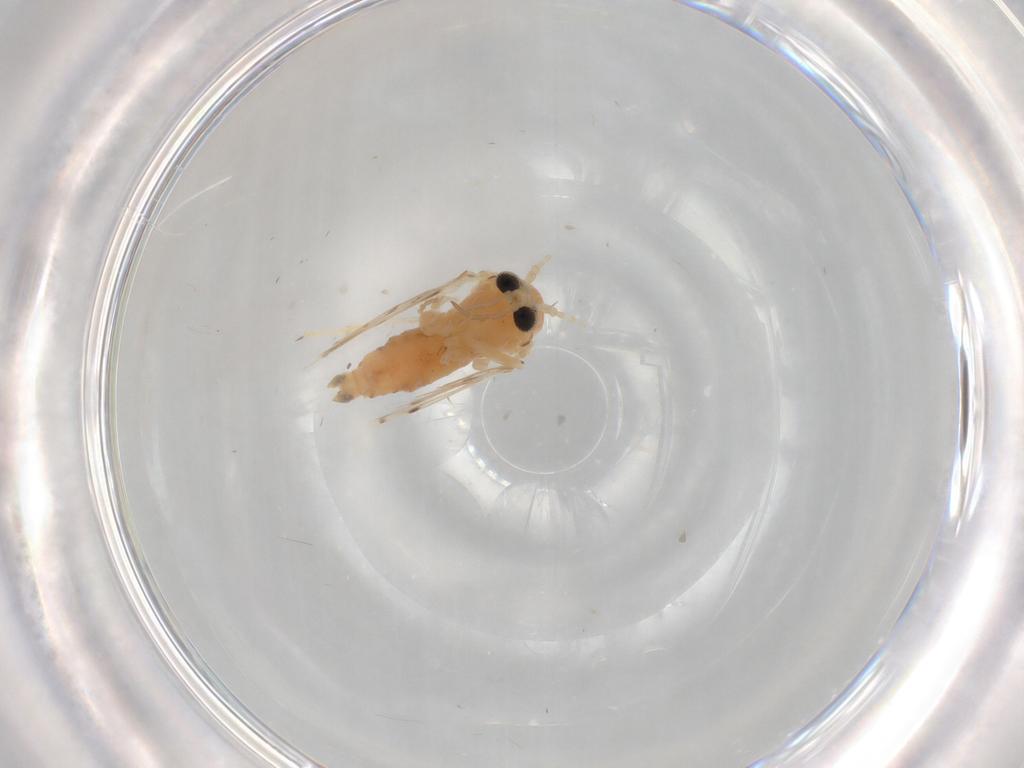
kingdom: Animalia
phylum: Arthropoda
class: Insecta
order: Diptera
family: Psychodidae
